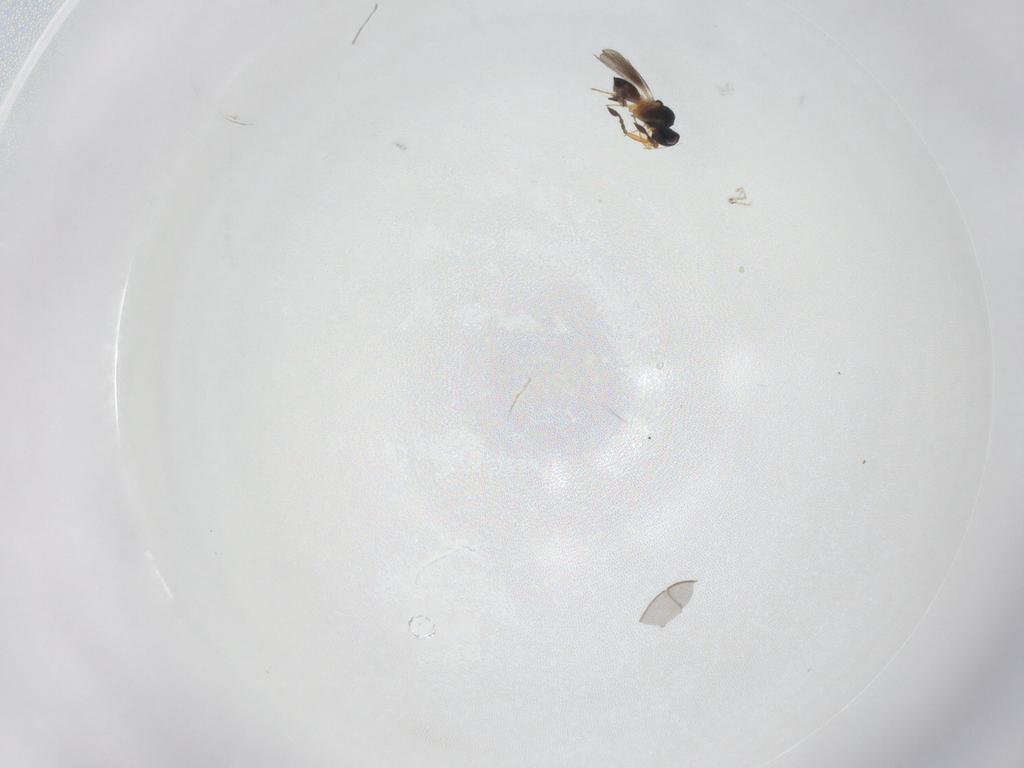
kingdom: Animalia
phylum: Arthropoda
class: Insecta
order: Hymenoptera
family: Platygastridae
